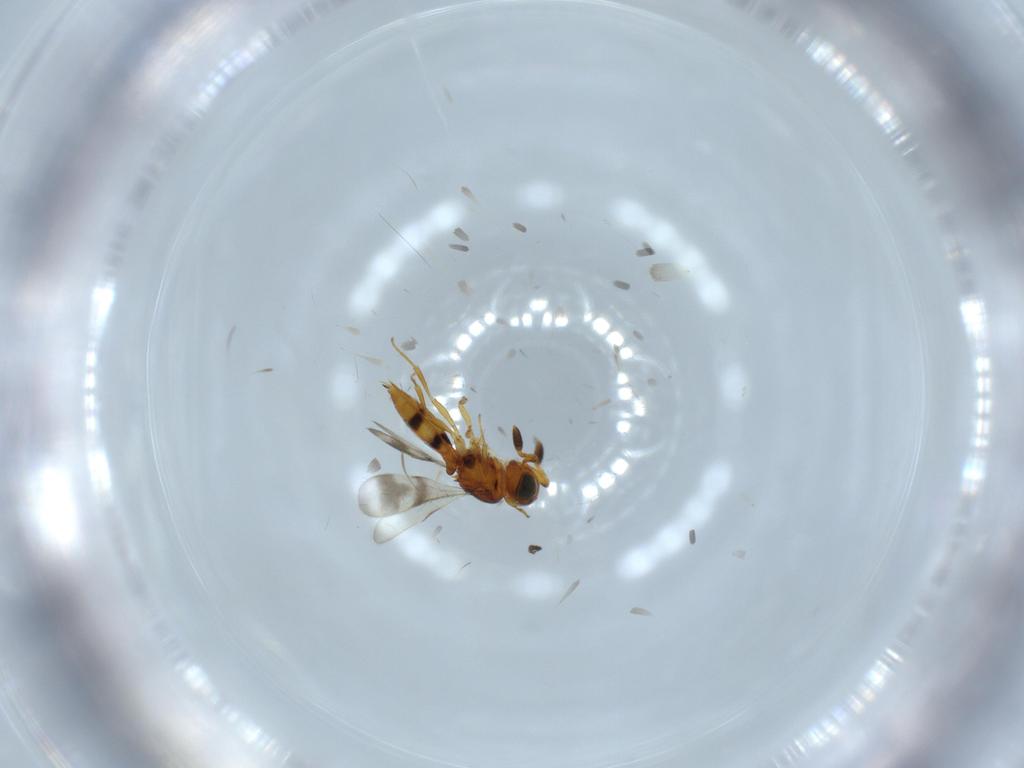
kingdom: Animalia
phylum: Arthropoda
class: Insecta
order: Hymenoptera
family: Scelionidae
